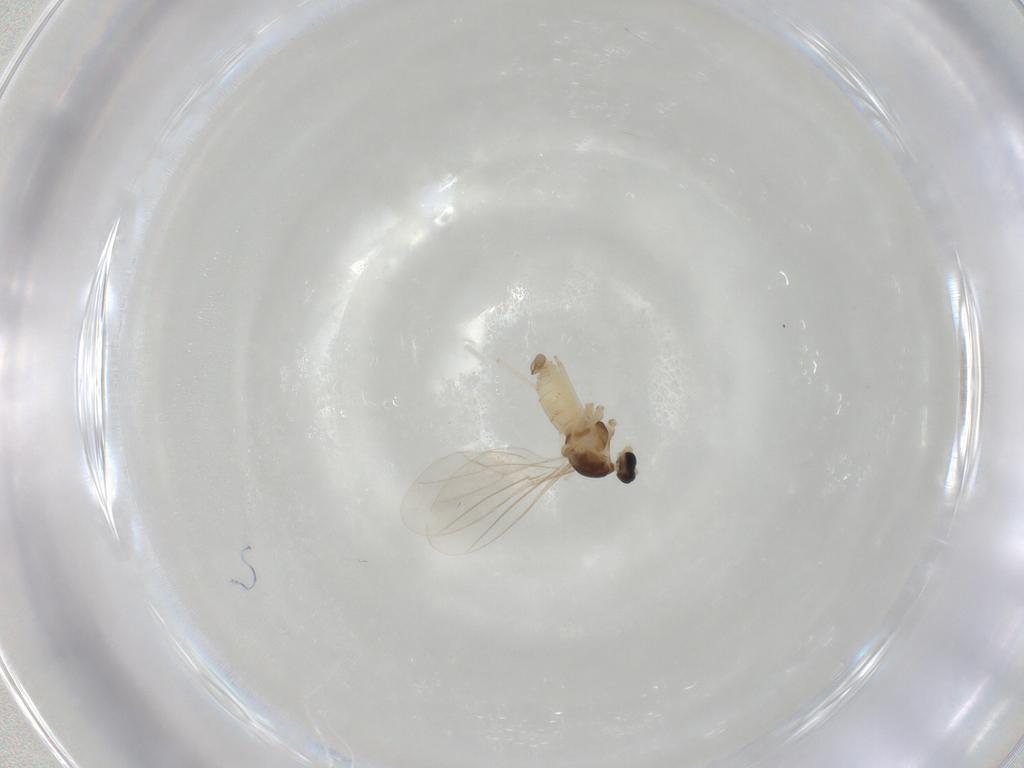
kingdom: Animalia
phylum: Arthropoda
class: Insecta
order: Diptera
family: Cecidomyiidae
